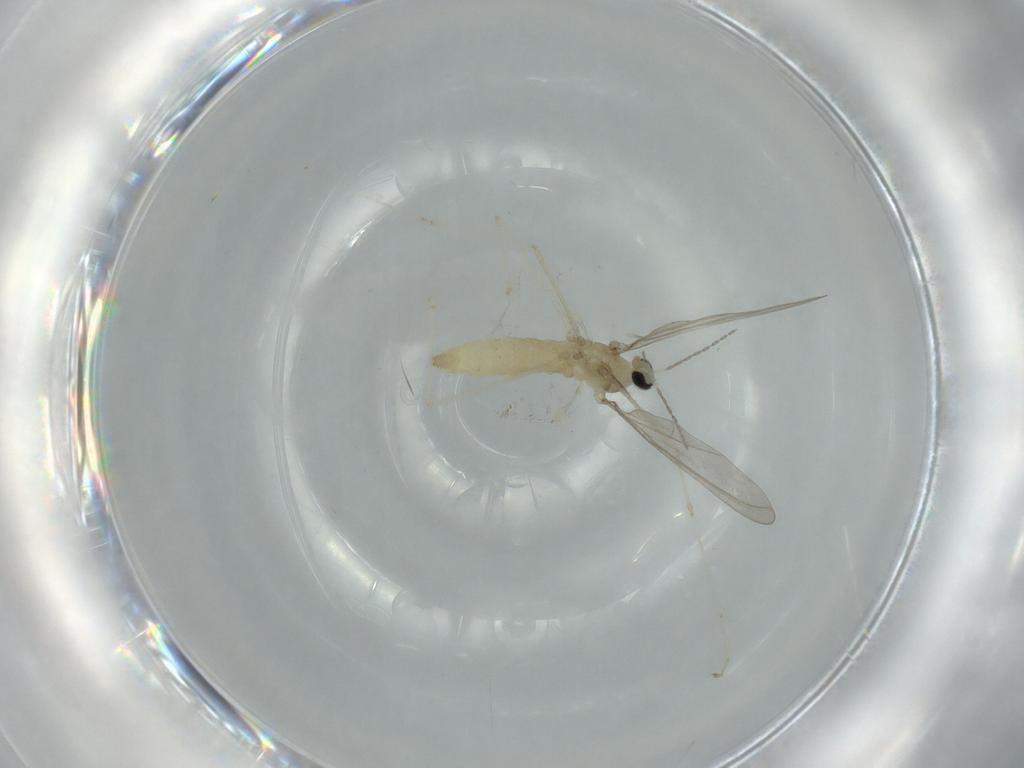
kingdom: Animalia
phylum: Arthropoda
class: Insecta
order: Diptera
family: Cecidomyiidae
